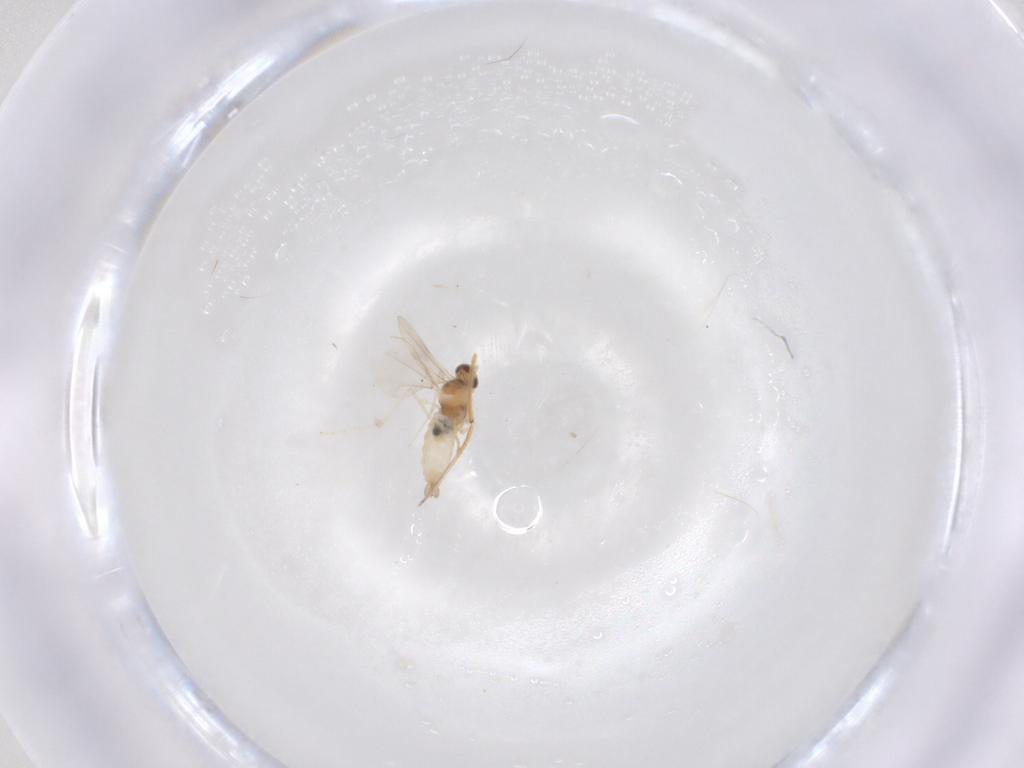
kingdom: Animalia
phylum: Arthropoda
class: Insecta
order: Diptera
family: Cecidomyiidae
